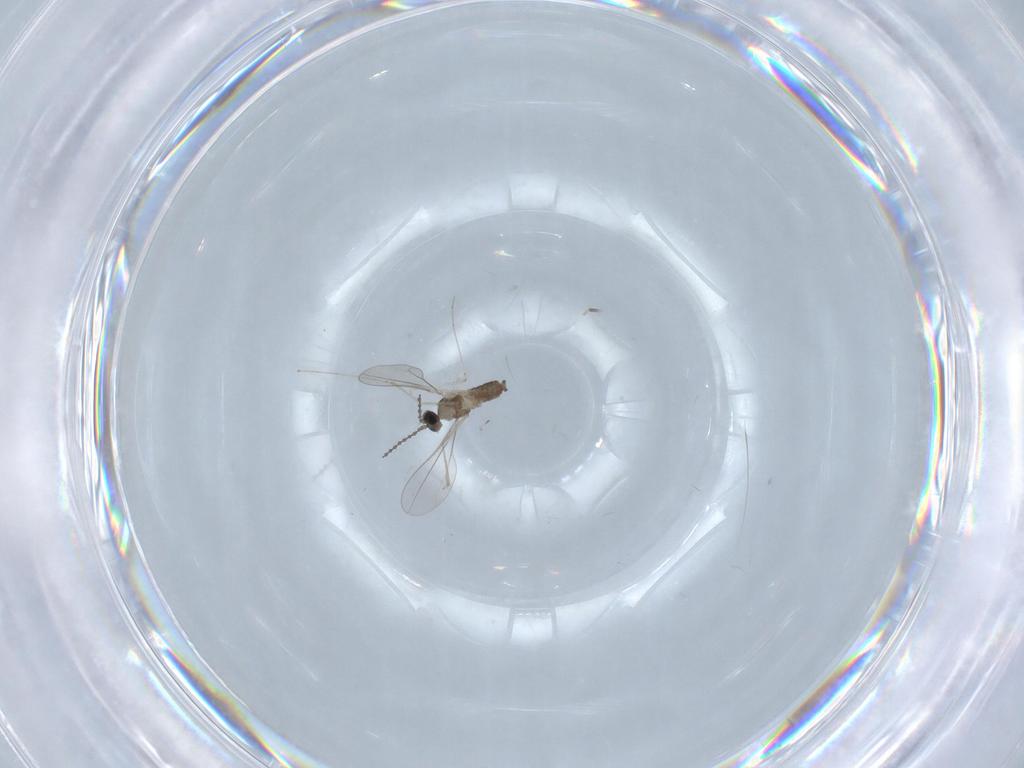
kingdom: Animalia
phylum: Arthropoda
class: Insecta
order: Diptera
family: Cecidomyiidae
